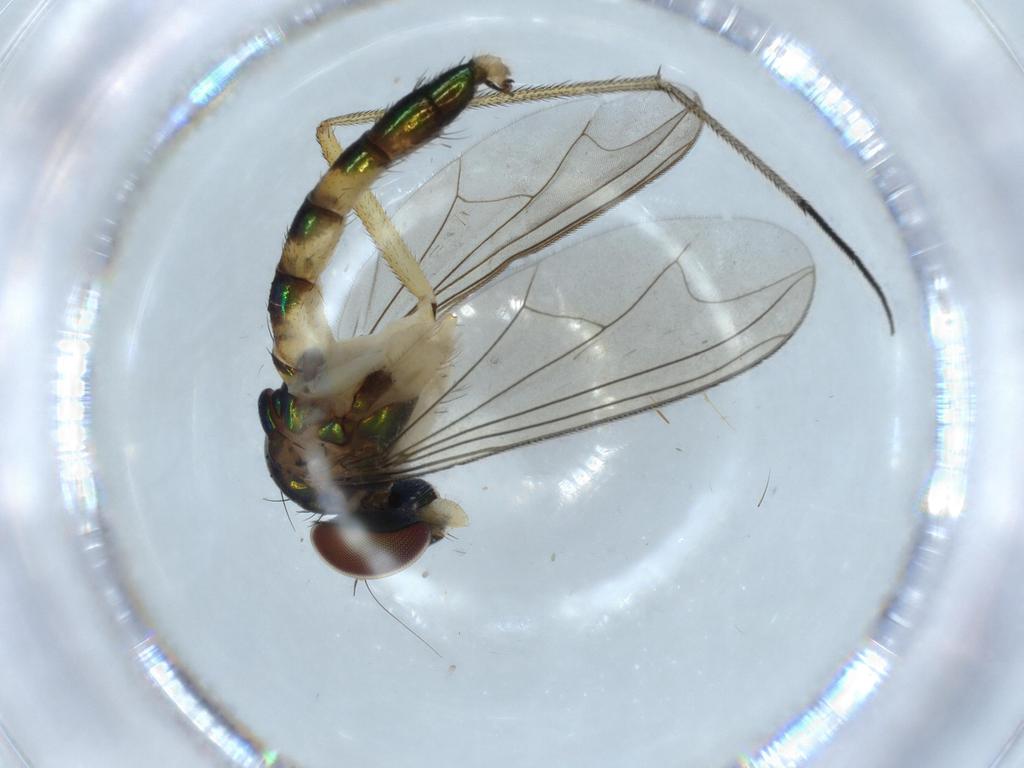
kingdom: Animalia
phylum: Arthropoda
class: Insecta
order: Diptera
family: Dolichopodidae
